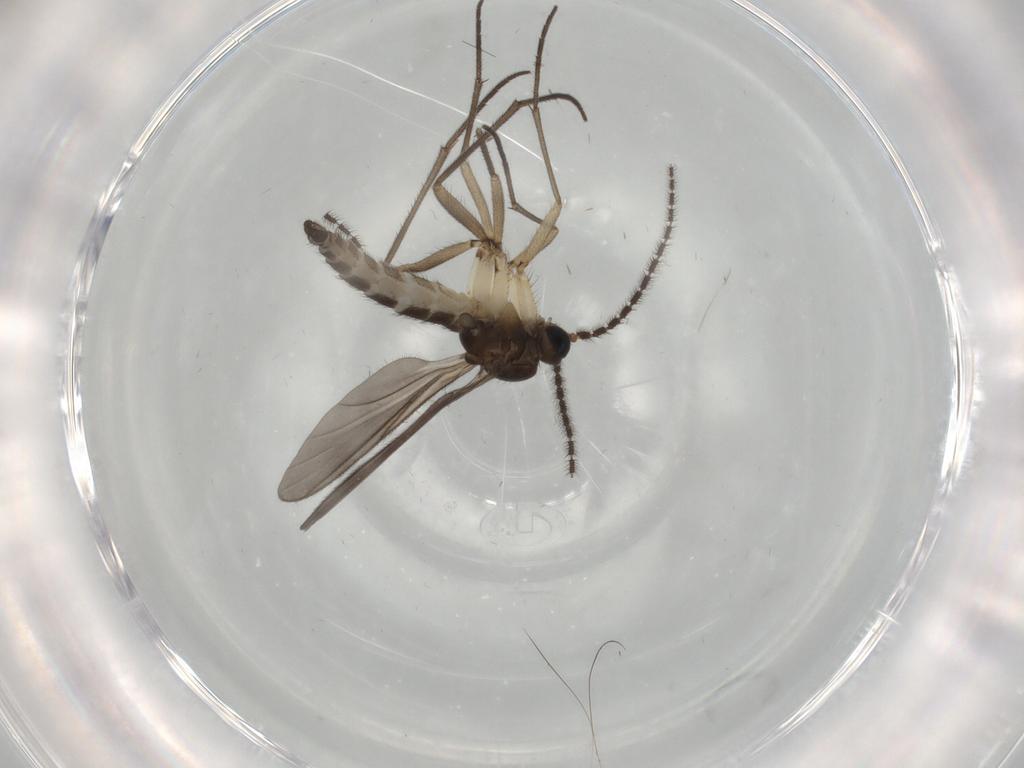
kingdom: Animalia
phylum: Arthropoda
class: Insecta
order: Diptera
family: Sciaridae
